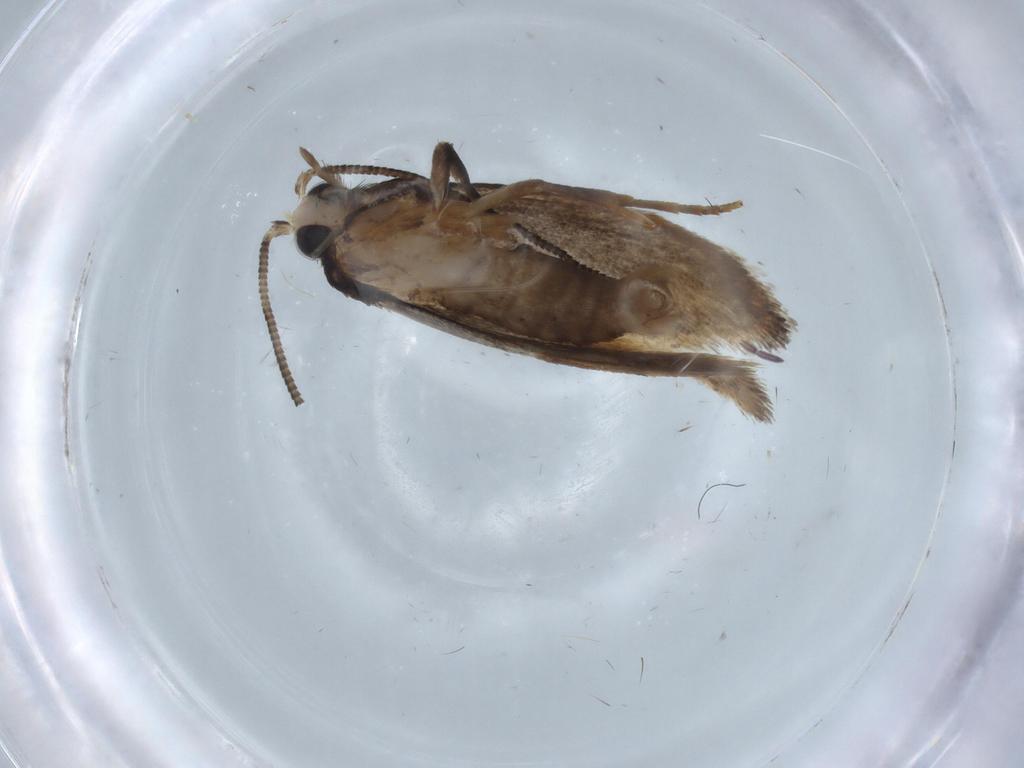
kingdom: Animalia
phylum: Arthropoda
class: Insecta
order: Lepidoptera
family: Tineidae
